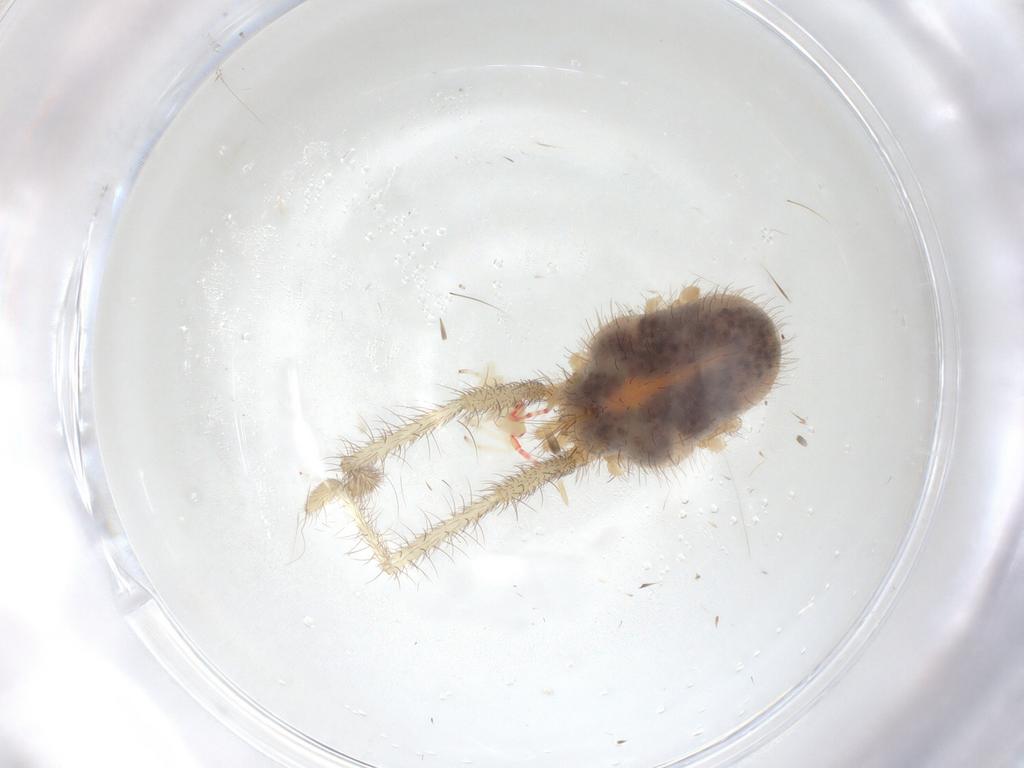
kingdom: Animalia
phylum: Arthropoda
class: Arachnida
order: Trombidiformes
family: Erythraeidae
